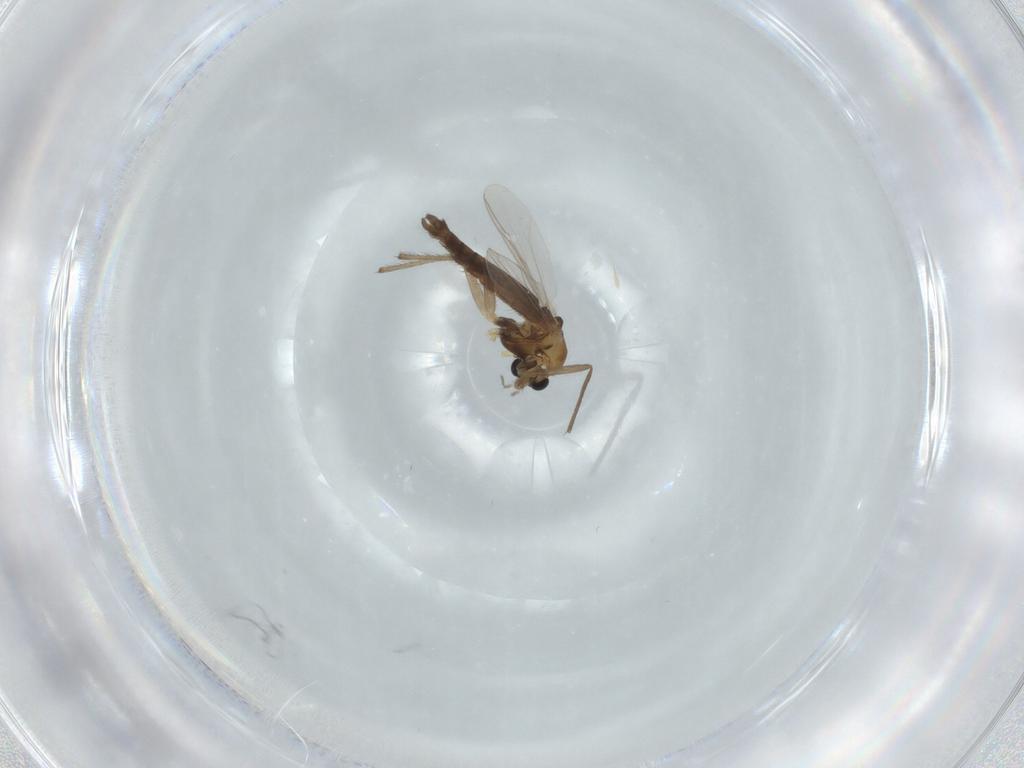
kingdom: Animalia
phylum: Arthropoda
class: Insecta
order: Diptera
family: Chironomidae
